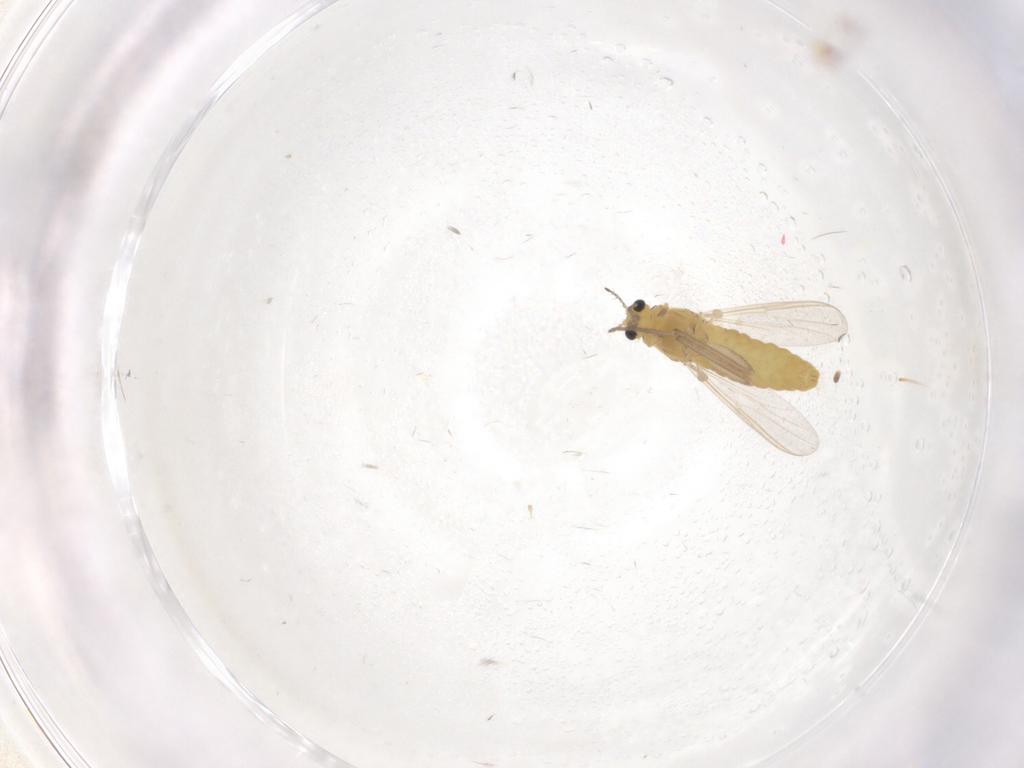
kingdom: Animalia
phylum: Arthropoda
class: Insecta
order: Diptera
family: Chironomidae
